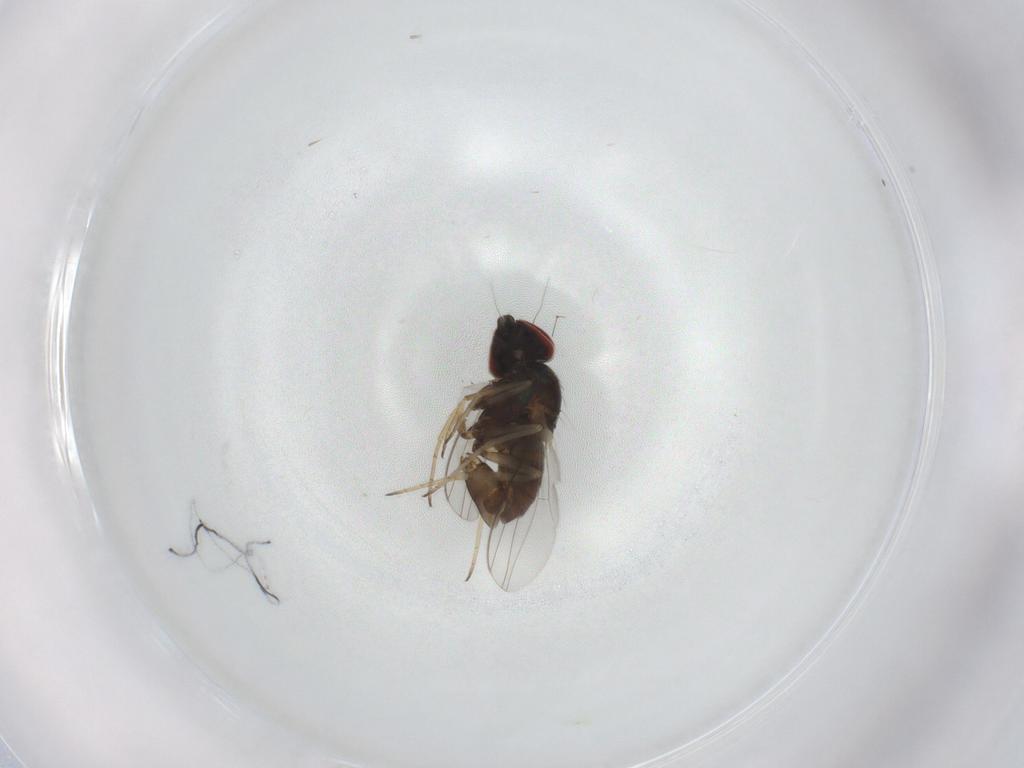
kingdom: Animalia
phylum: Arthropoda
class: Insecta
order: Diptera
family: Dolichopodidae
